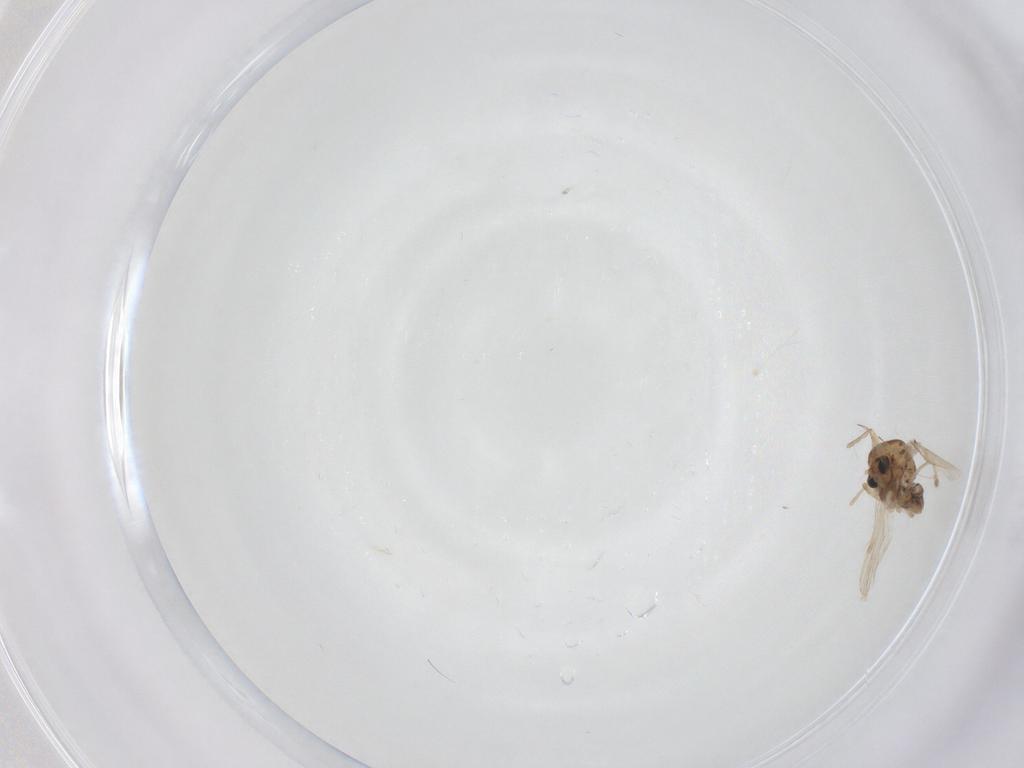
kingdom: Animalia
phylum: Arthropoda
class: Insecta
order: Diptera
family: Chironomidae
